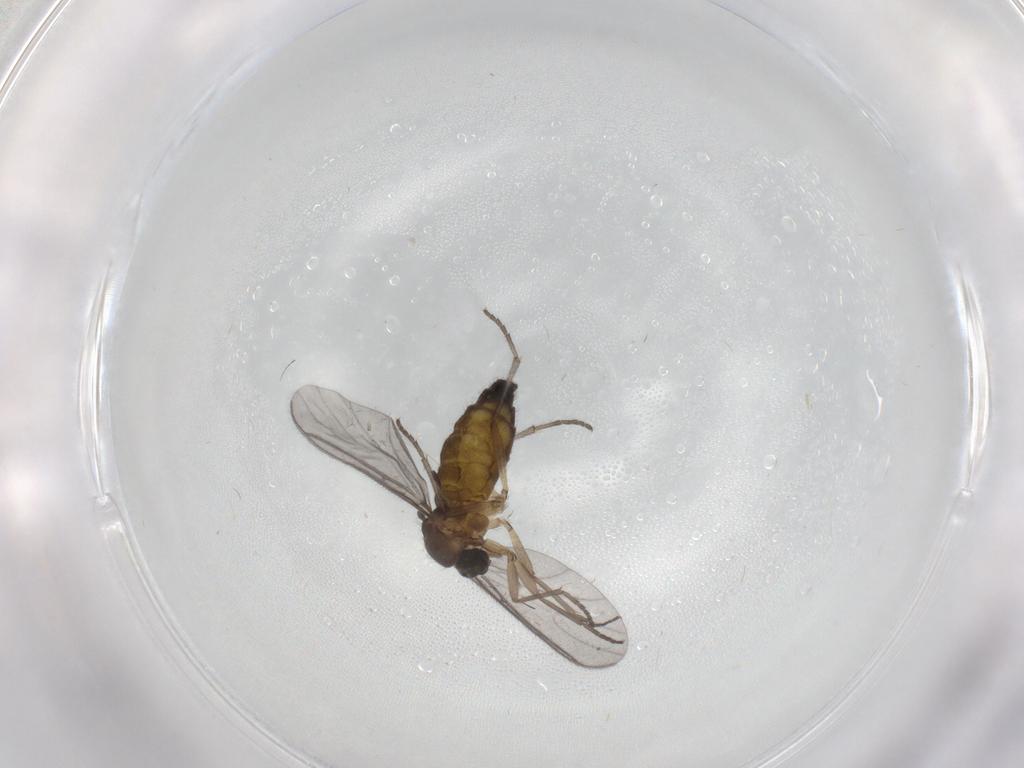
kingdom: Animalia
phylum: Arthropoda
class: Insecta
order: Diptera
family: Sciaridae
